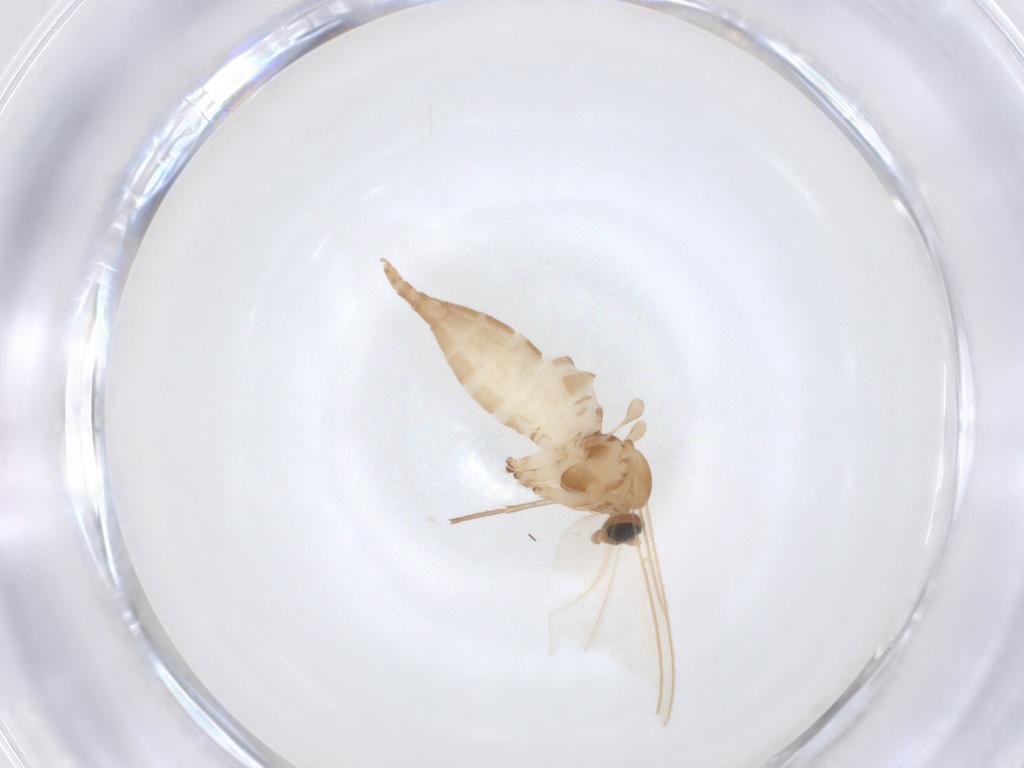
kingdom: Animalia
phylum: Arthropoda
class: Insecta
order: Diptera
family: Sciaridae
